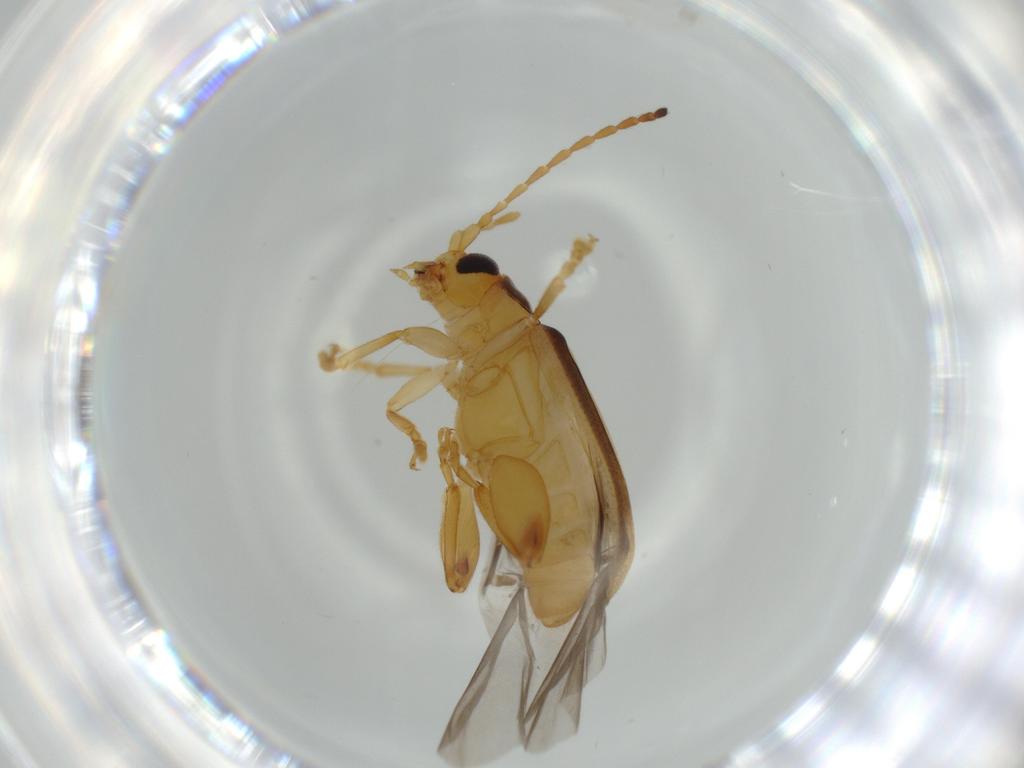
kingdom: Animalia
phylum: Arthropoda
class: Insecta
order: Coleoptera
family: Chrysomelidae
